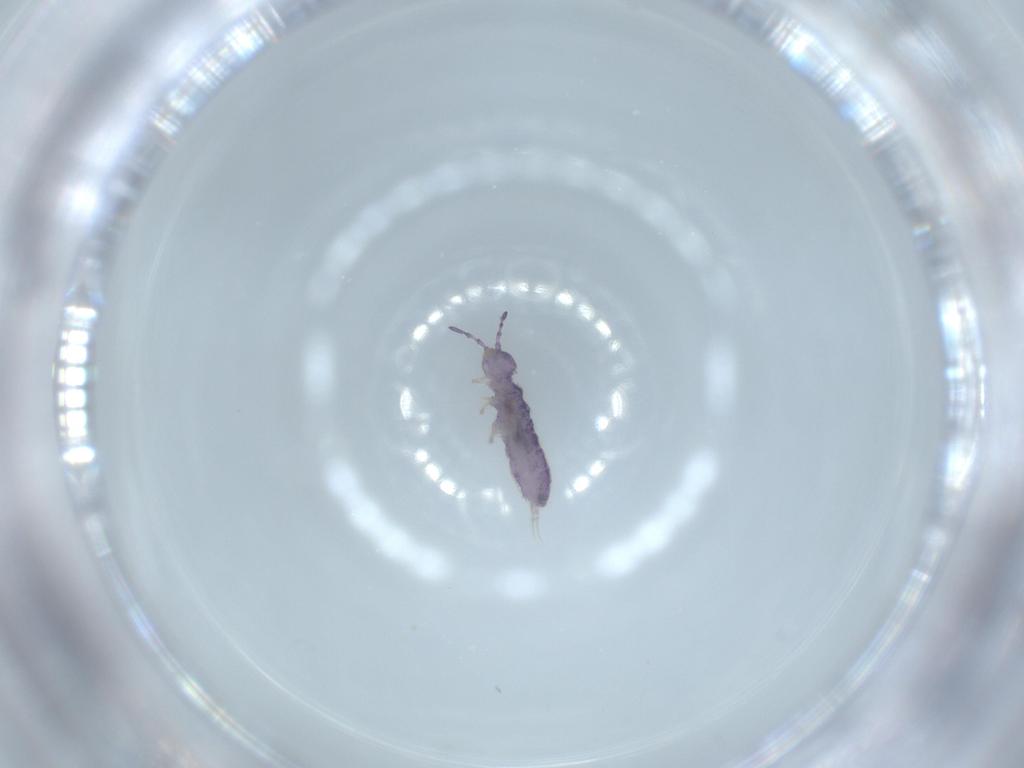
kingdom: Animalia
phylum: Arthropoda
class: Collembola
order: Entomobryomorpha
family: Isotomidae
